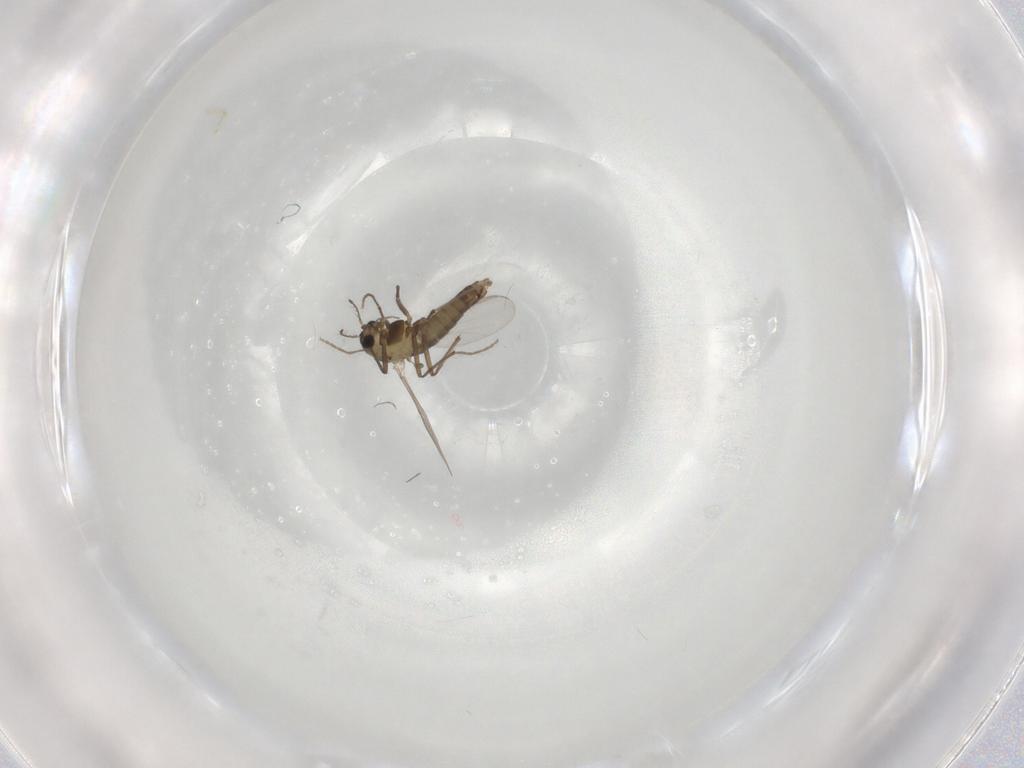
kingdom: Animalia
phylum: Arthropoda
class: Insecta
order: Diptera
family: Chironomidae
